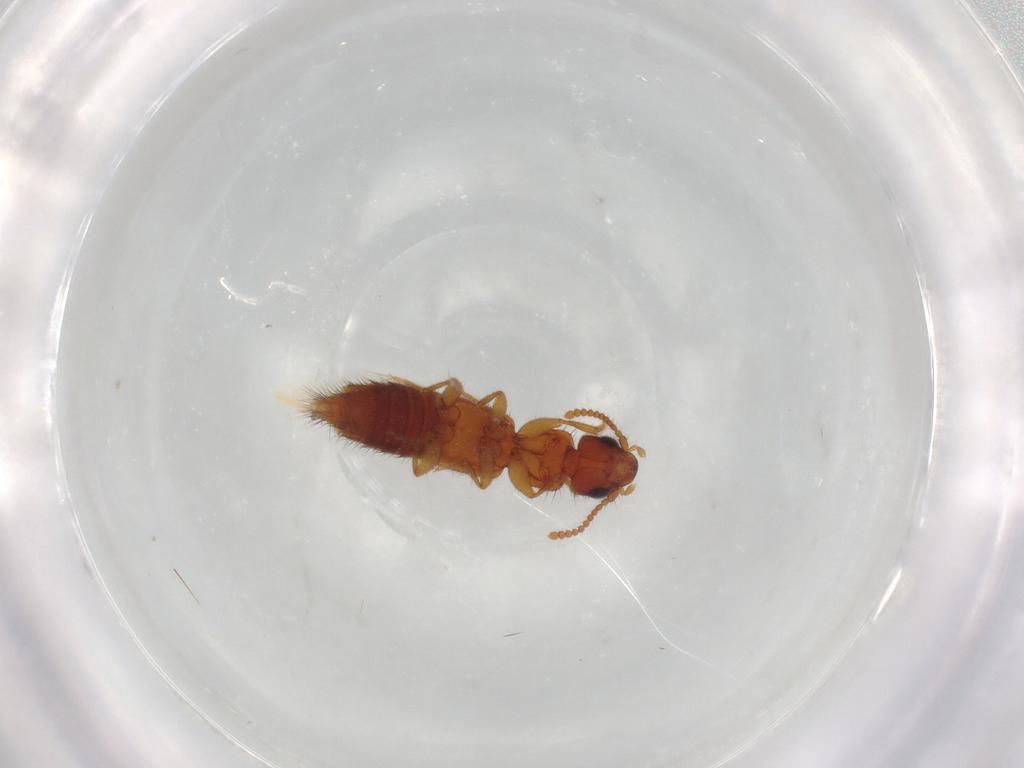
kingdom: Animalia
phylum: Arthropoda
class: Insecta
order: Coleoptera
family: Staphylinidae
